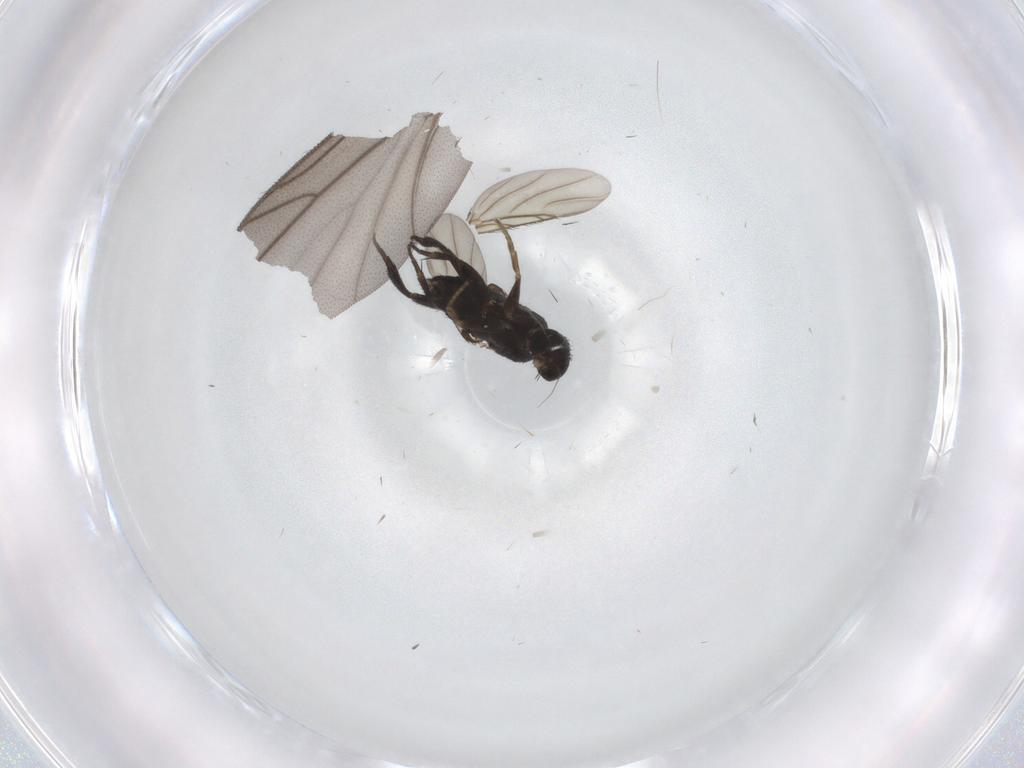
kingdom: Animalia
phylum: Arthropoda
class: Insecta
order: Diptera
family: Phoridae
